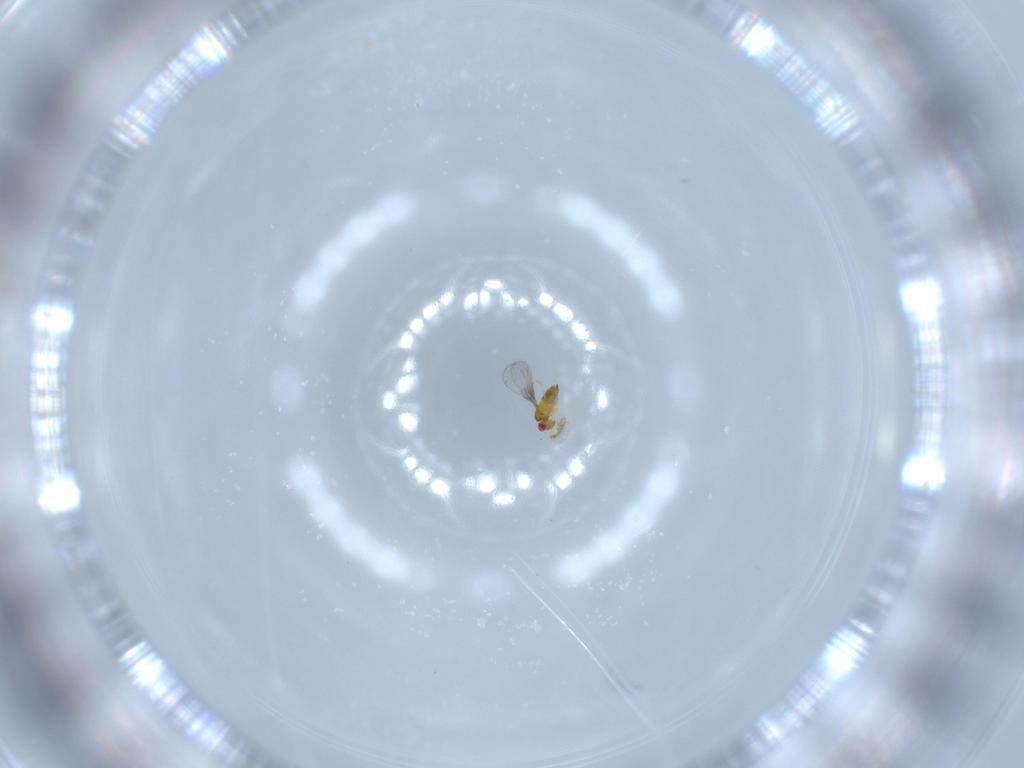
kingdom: Animalia
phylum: Arthropoda
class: Insecta
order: Hymenoptera
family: Trichogrammatidae
